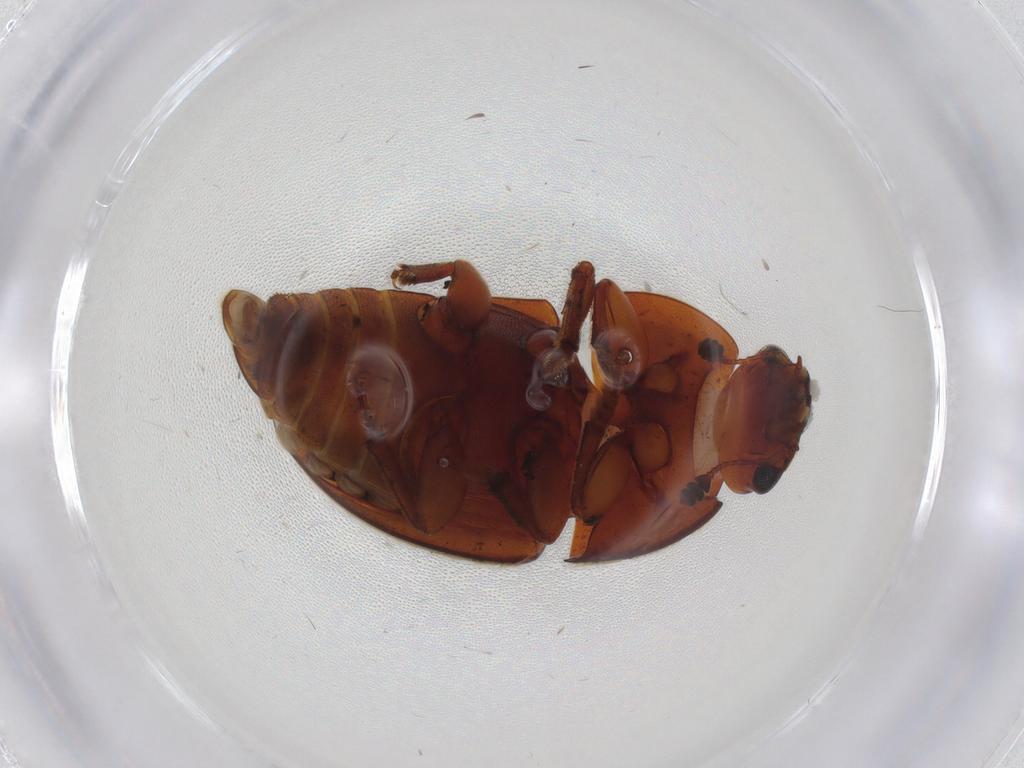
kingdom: Animalia
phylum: Arthropoda
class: Insecta
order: Coleoptera
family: Nitidulidae
